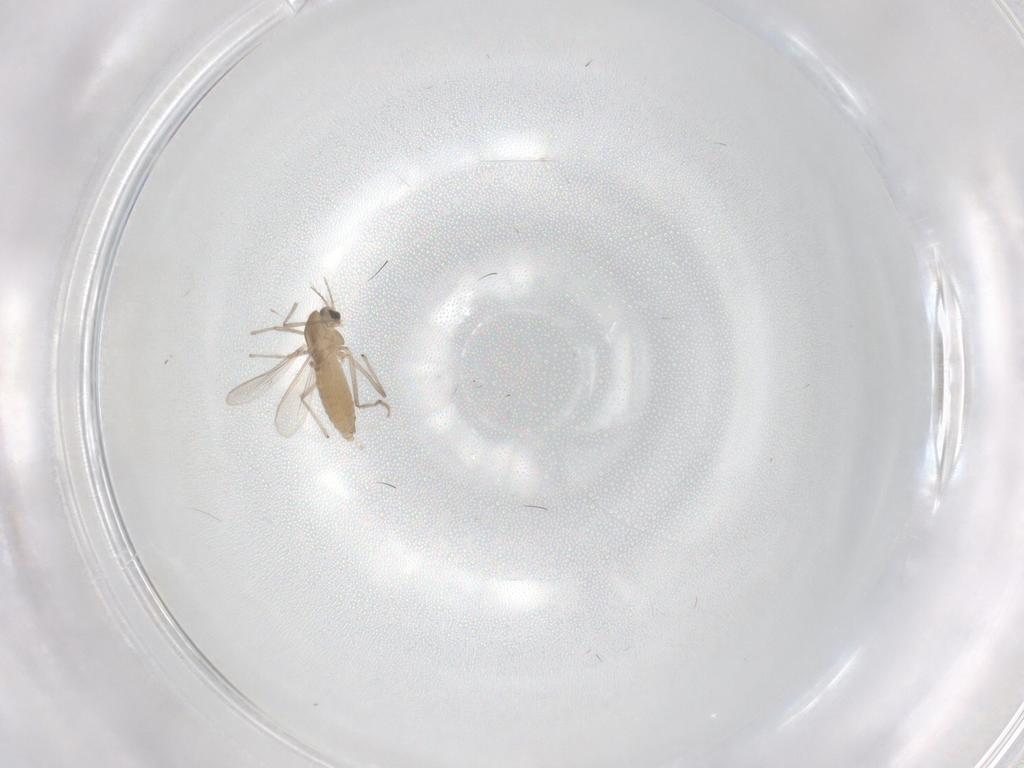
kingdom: Animalia
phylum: Arthropoda
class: Insecta
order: Diptera
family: Chironomidae
